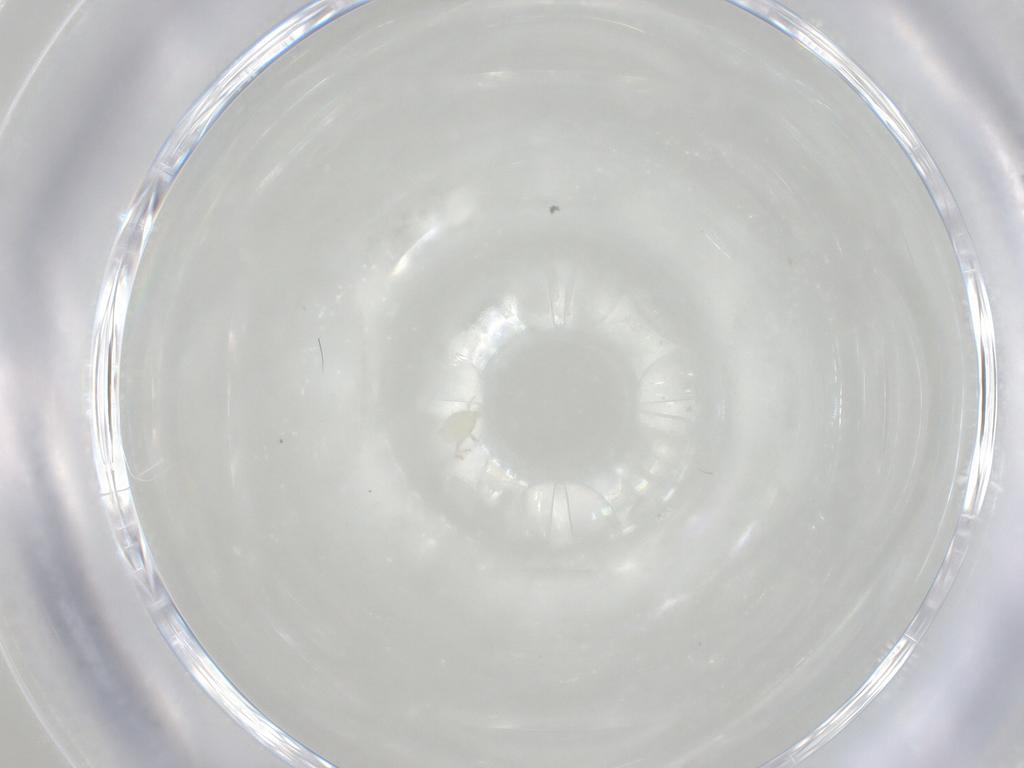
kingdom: Animalia
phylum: Arthropoda
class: Arachnida
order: Trombidiformes
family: Microtrombidiidae
